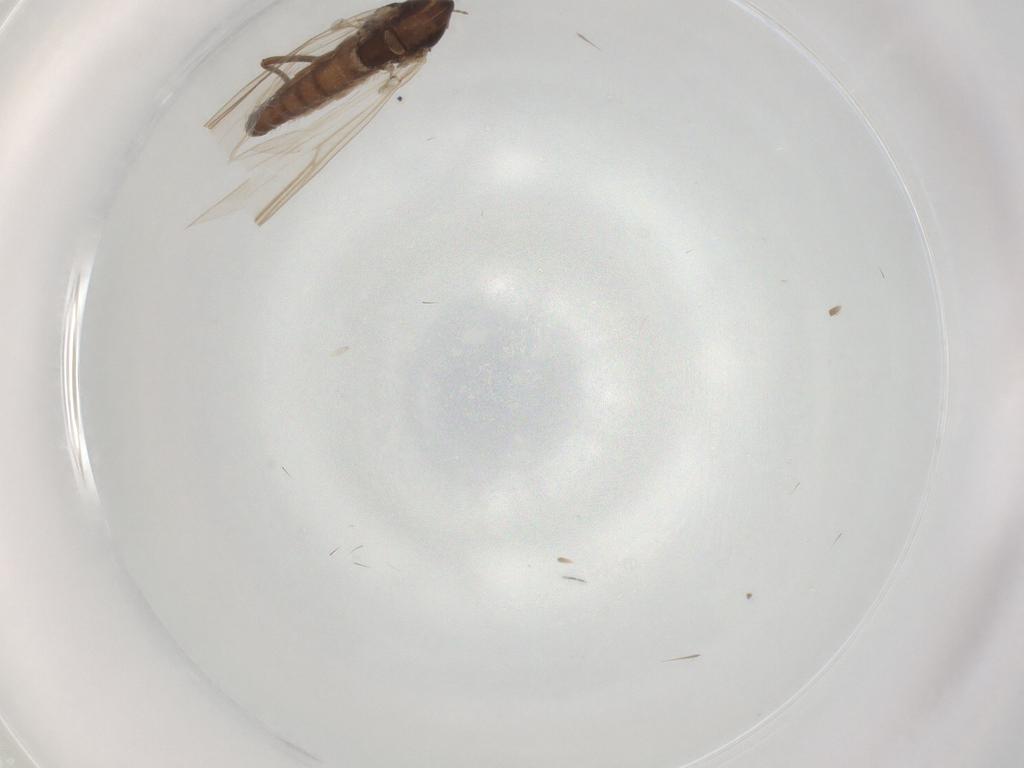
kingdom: Animalia
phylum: Arthropoda
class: Insecta
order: Diptera
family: Chironomidae
